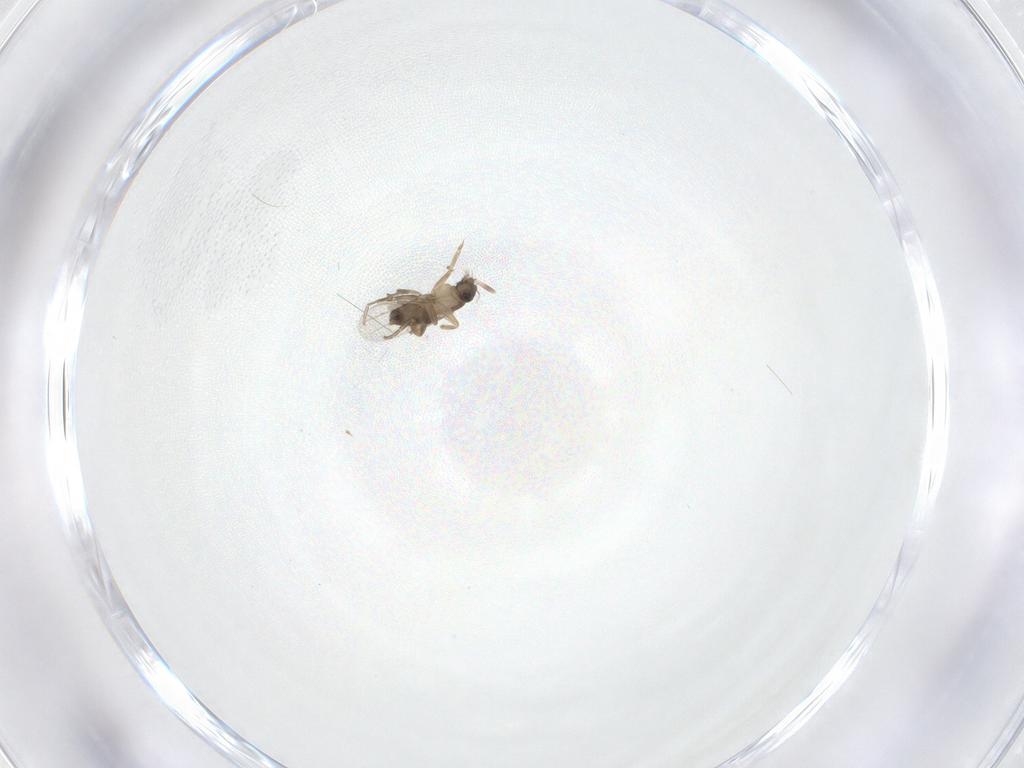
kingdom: Animalia
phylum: Arthropoda
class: Insecta
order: Diptera
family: Phoridae
